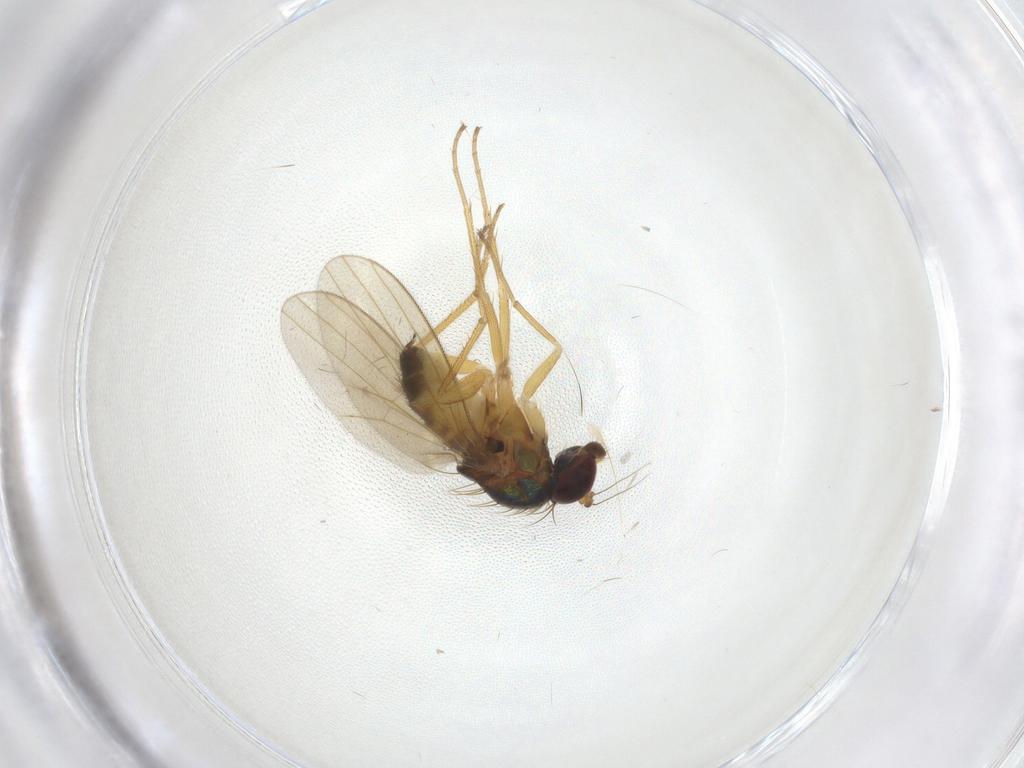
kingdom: Animalia
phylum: Arthropoda
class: Insecta
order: Diptera
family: Dolichopodidae
